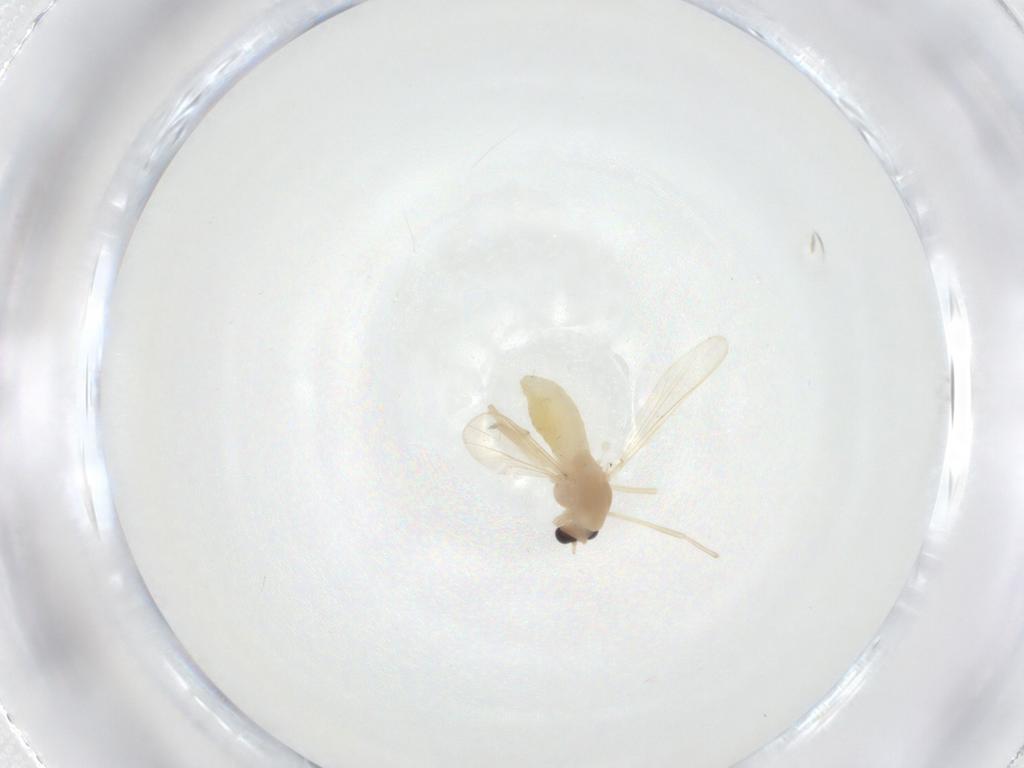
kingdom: Animalia
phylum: Arthropoda
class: Insecta
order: Diptera
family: Chironomidae
